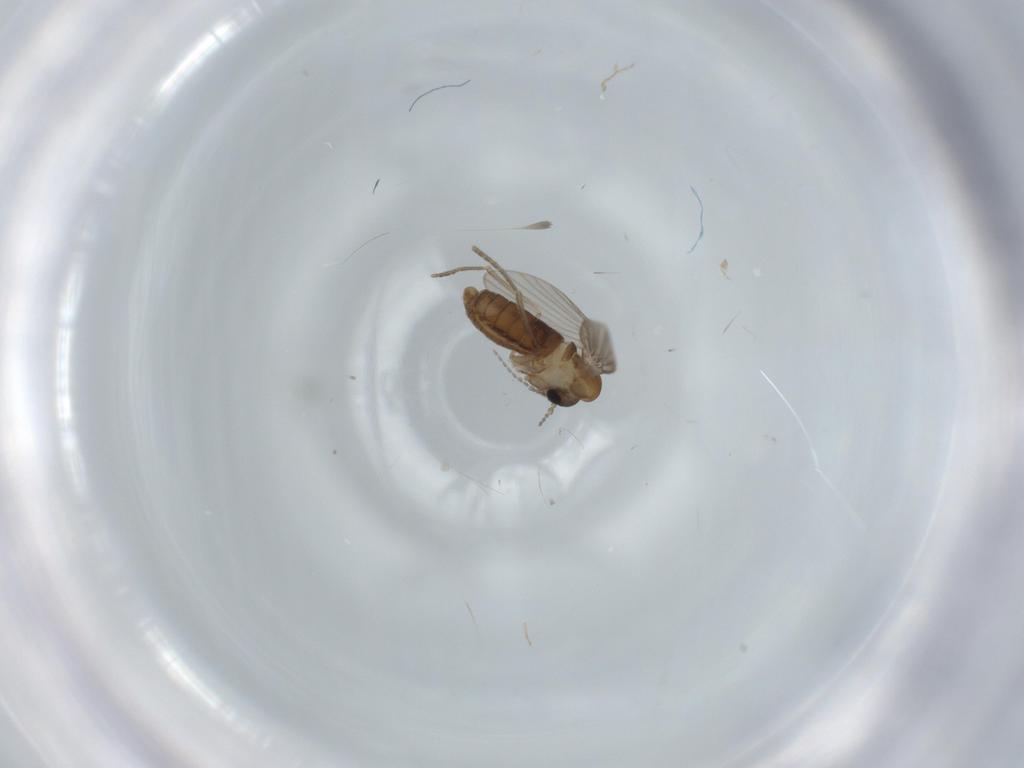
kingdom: Animalia
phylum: Arthropoda
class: Insecta
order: Diptera
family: Psychodidae
